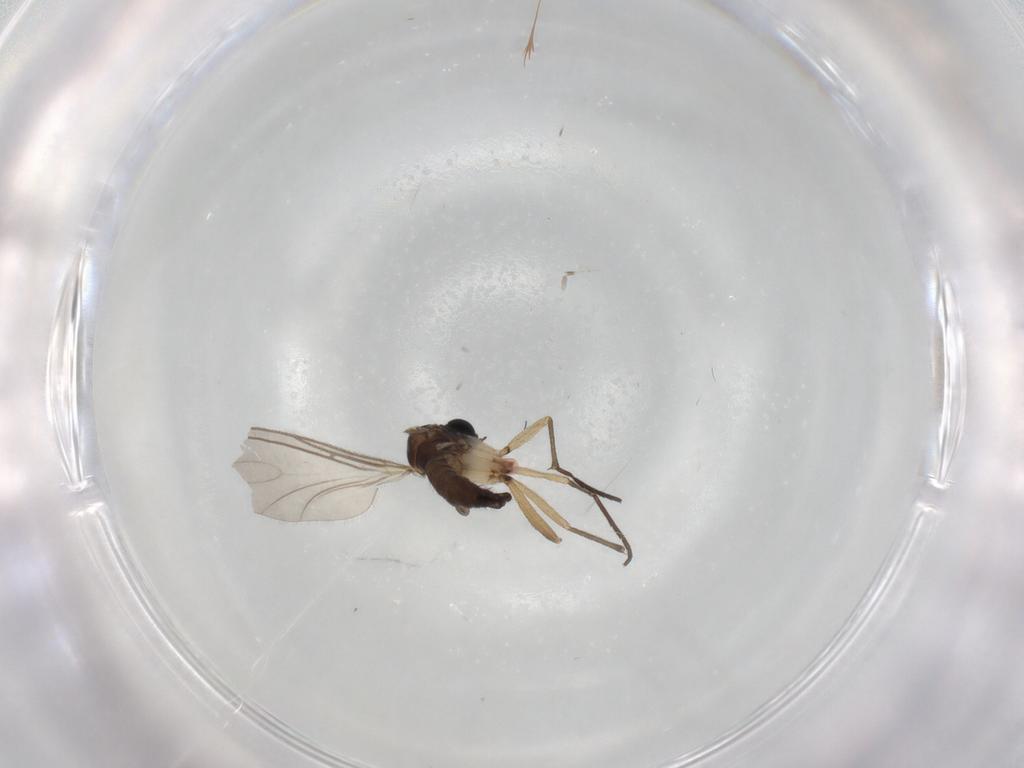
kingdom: Animalia
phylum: Arthropoda
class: Insecta
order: Diptera
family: Sciaridae
